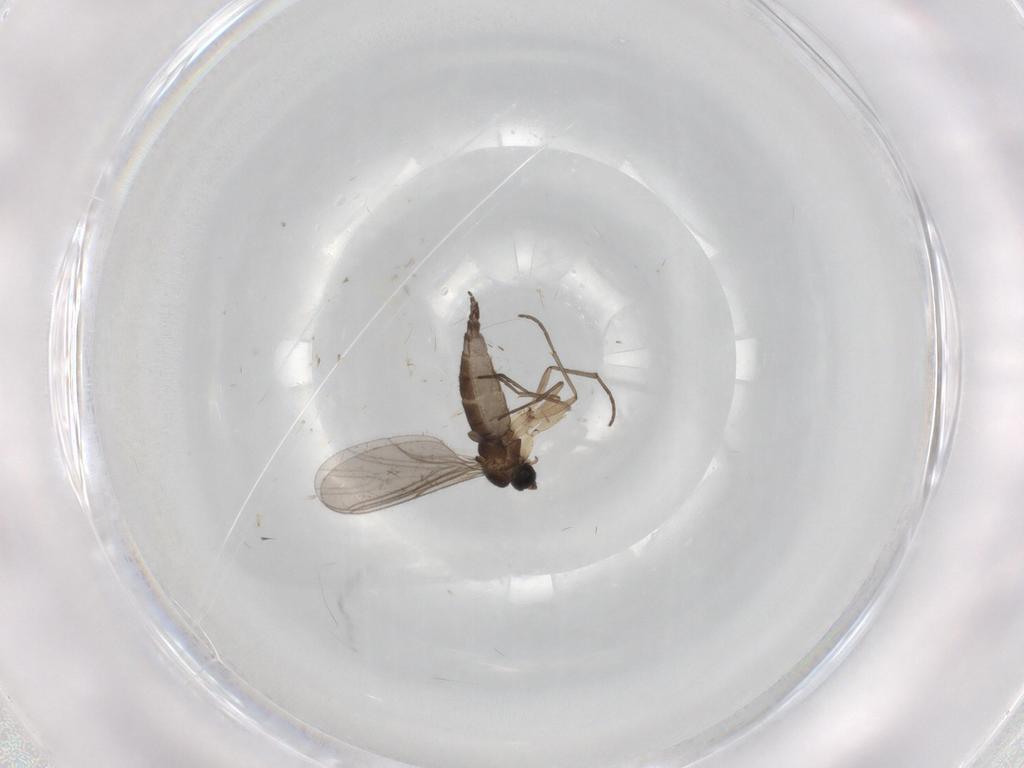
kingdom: Animalia
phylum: Arthropoda
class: Insecta
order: Diptera
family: Sciaridae
